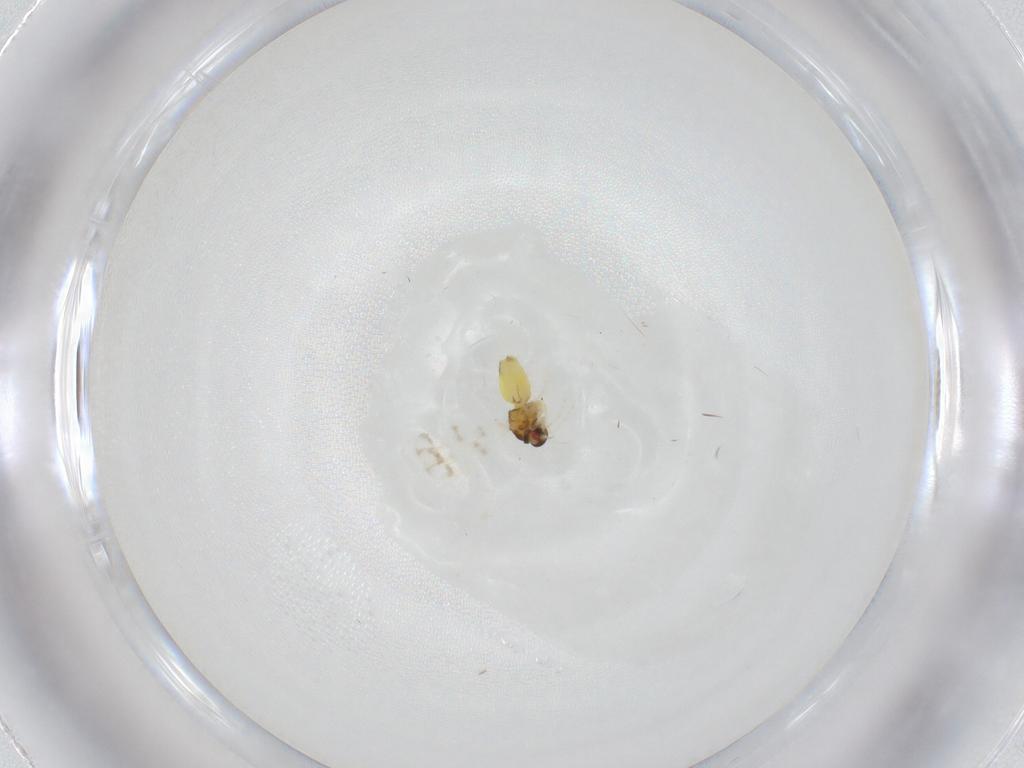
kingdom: Animalia
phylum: Arthropoda
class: Insecta
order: Hemiptera
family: Aleyrodidae
